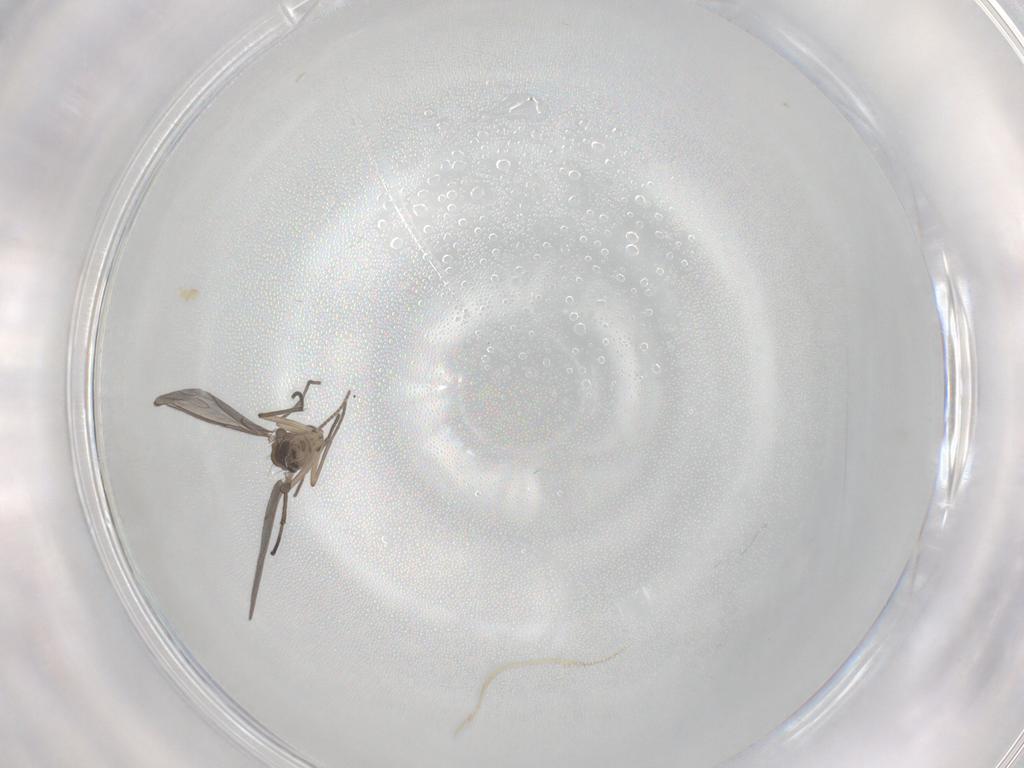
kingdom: Animalia
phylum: Arthropoda
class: Insecta
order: Diptera
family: Sciaridae
